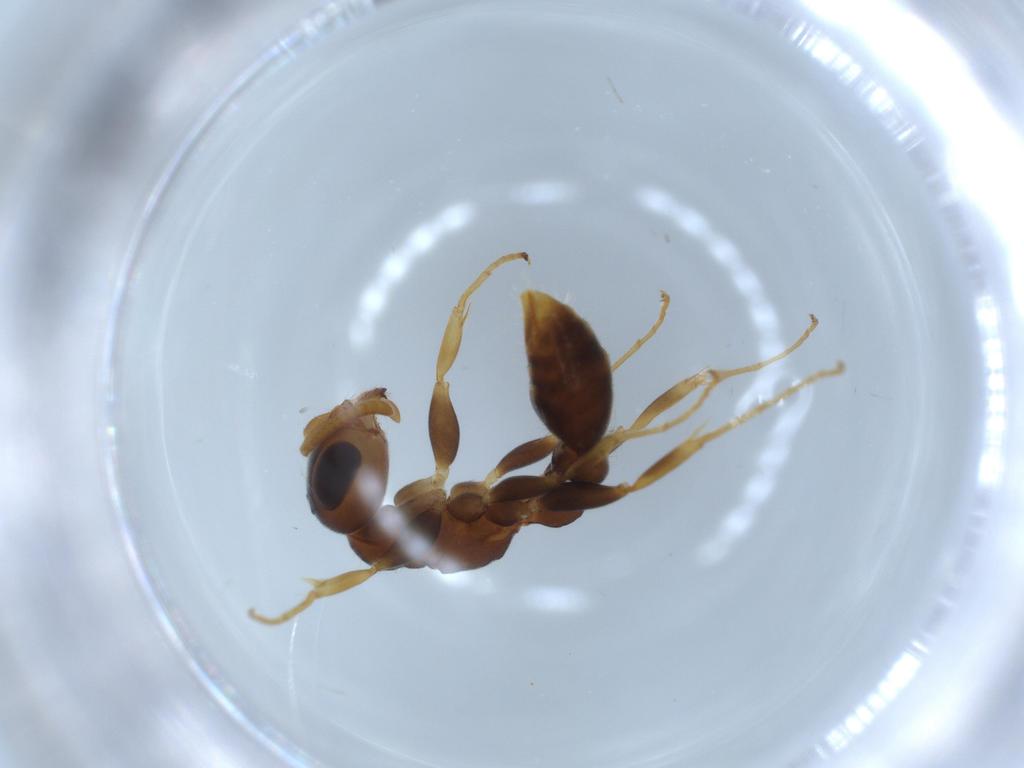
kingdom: Animalia
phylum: Arthropoda
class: Insecta
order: Hymenoptera
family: Formicidae
